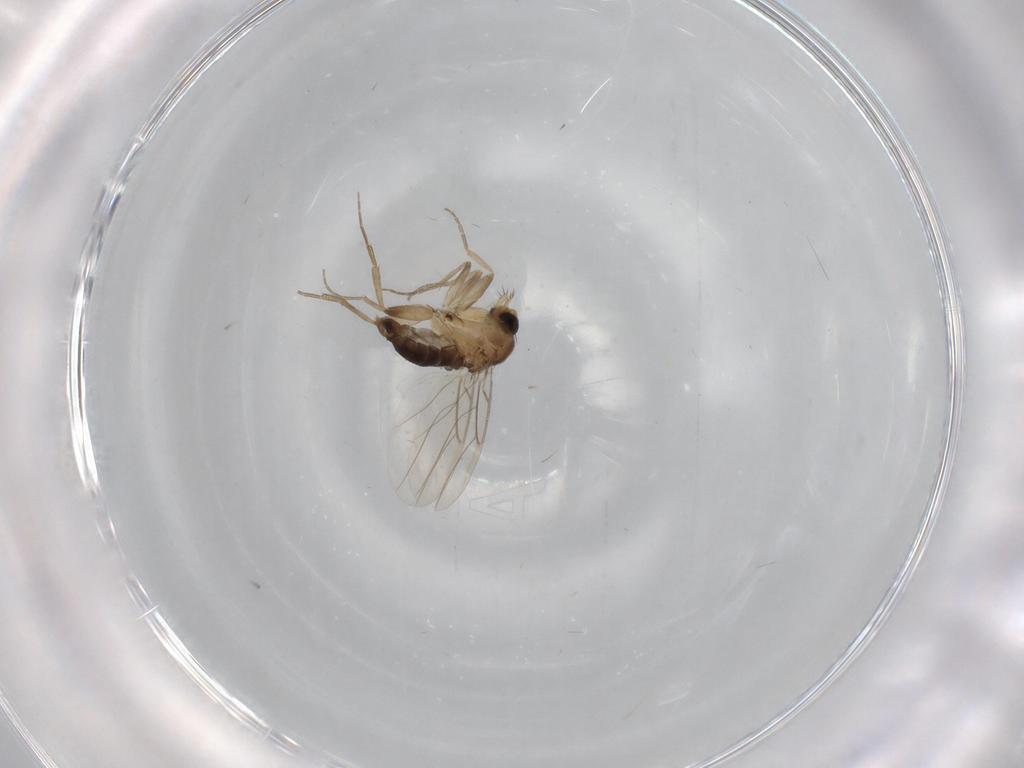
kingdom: Animalia
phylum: Arthropoda
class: Insecta
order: Diptera
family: Phoridae
